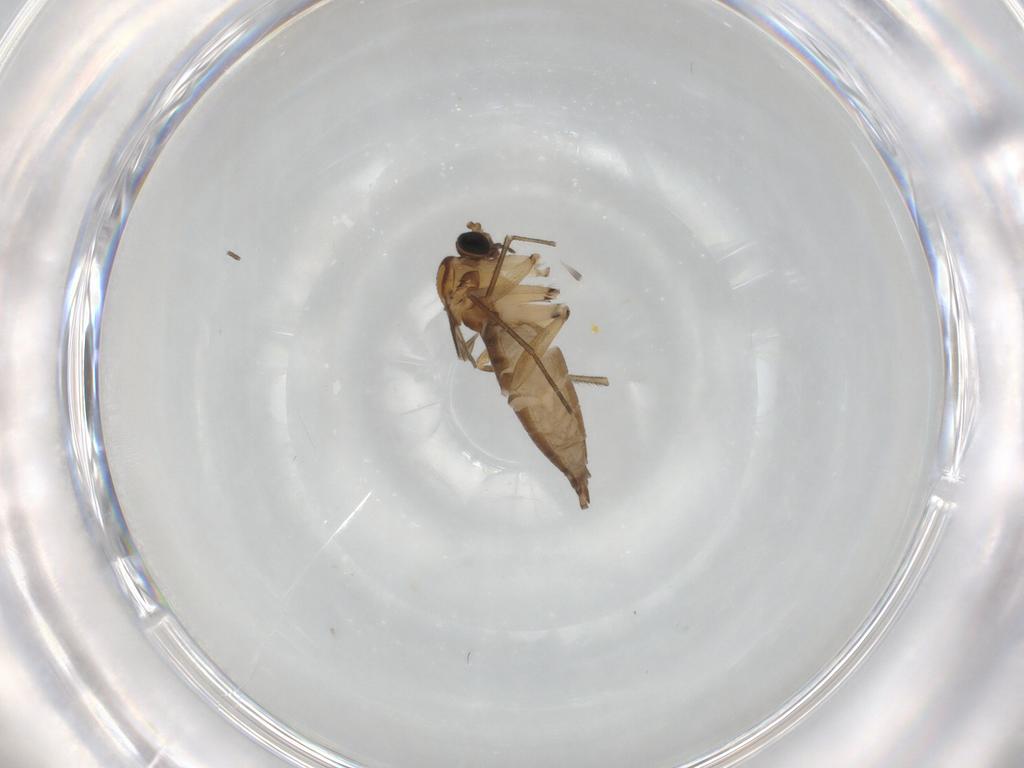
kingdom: Animalia
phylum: Arthropoda
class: Insecta
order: Diptera
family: Sciaridae
